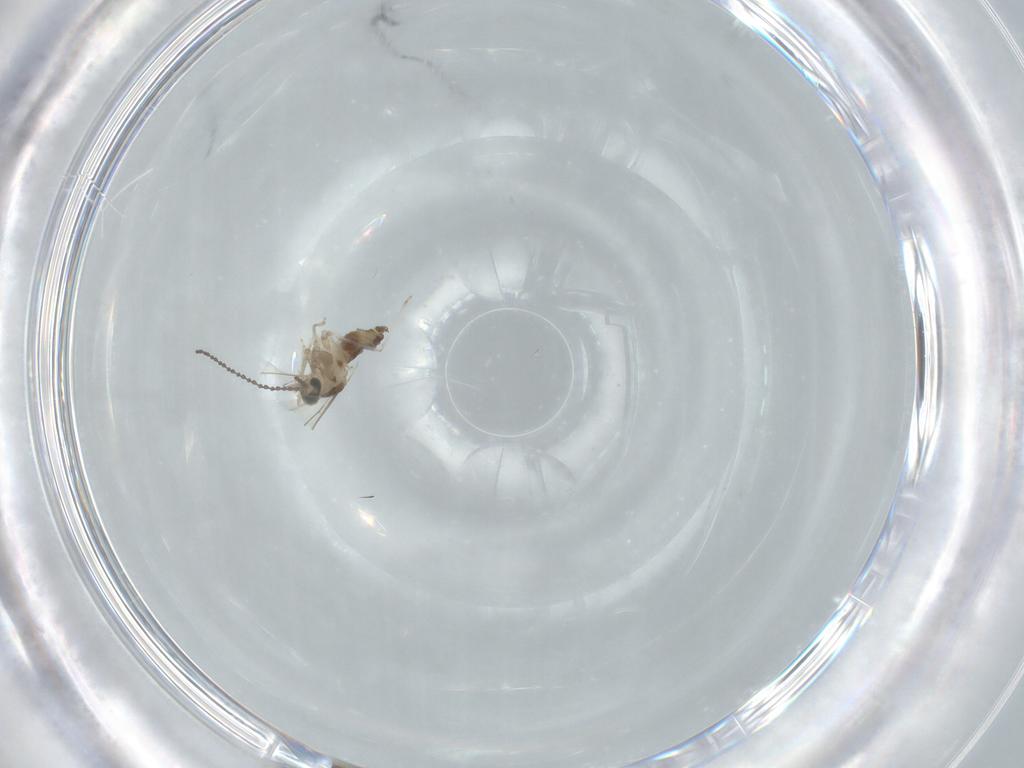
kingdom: Animalia
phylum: Arthropoda
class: Insecta
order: Diptera
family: Cecidomyiidae
